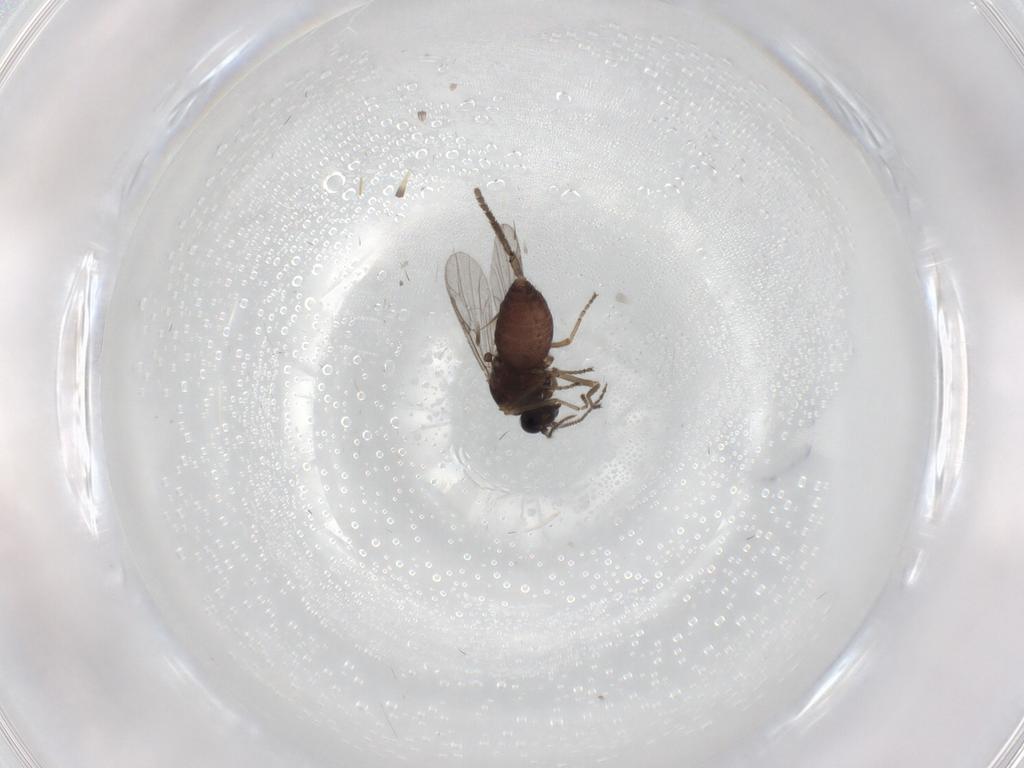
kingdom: Animalia
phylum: Arthropoda
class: Insecta
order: Diptera
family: Ceratopogonidae
